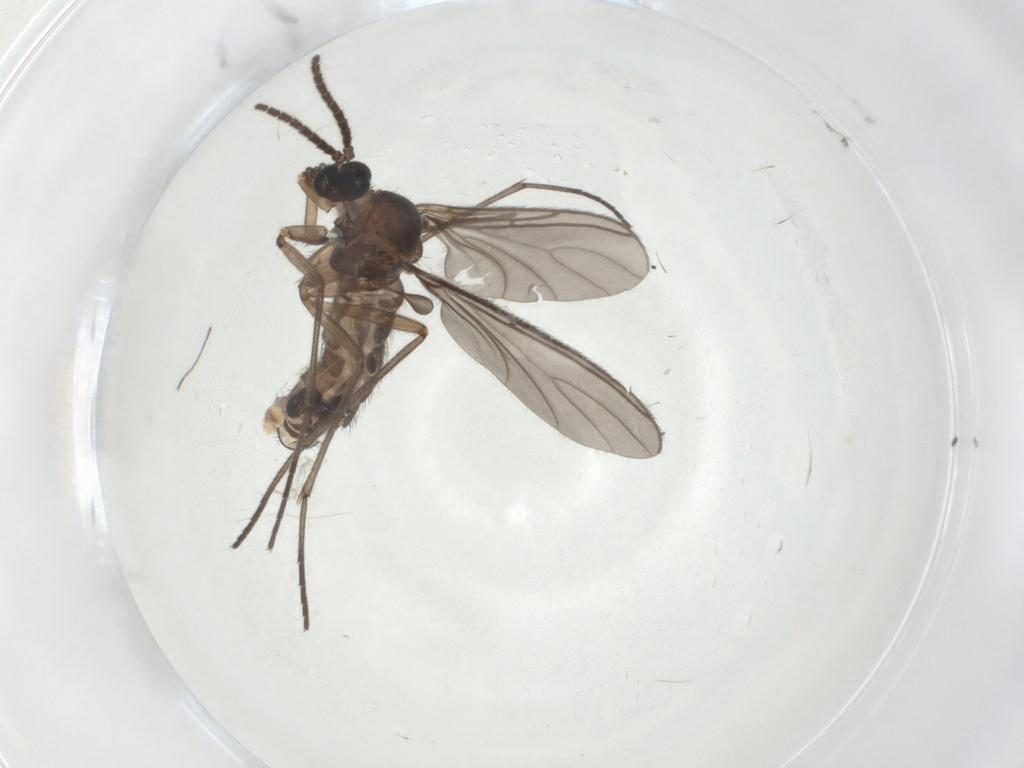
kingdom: Animalia
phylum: Arthropoda
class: Insecta
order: Diptera
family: Sciaridae
